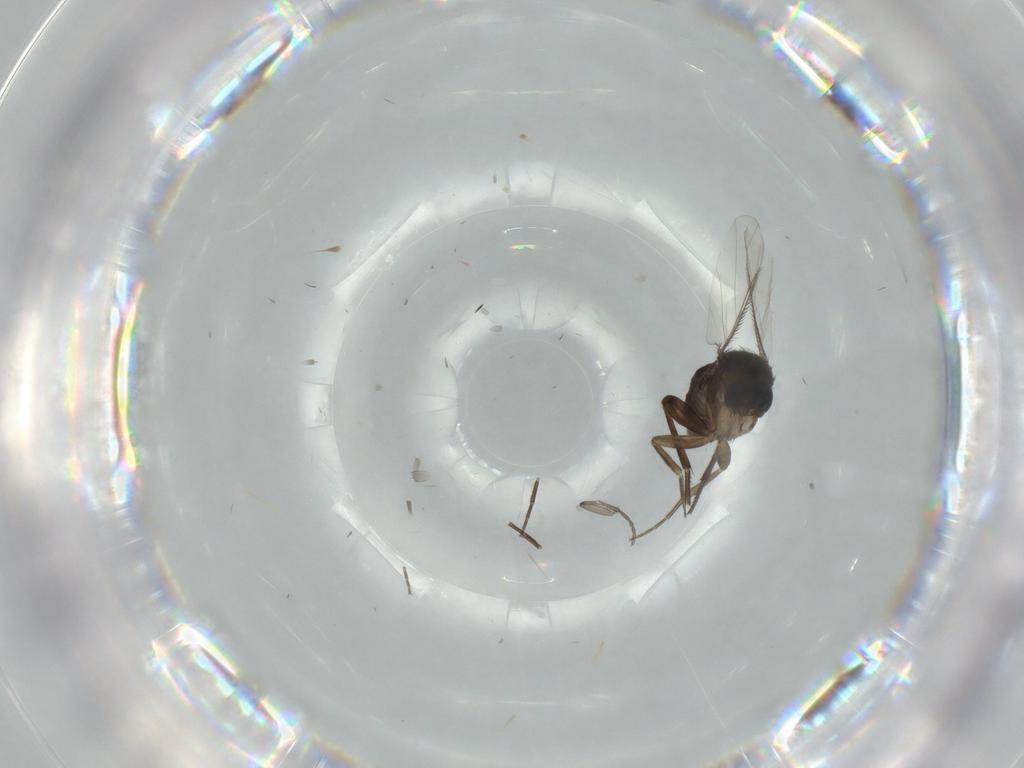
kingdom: Animalia
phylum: Arthropoda
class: Insecta
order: Diptera
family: Phoridae
